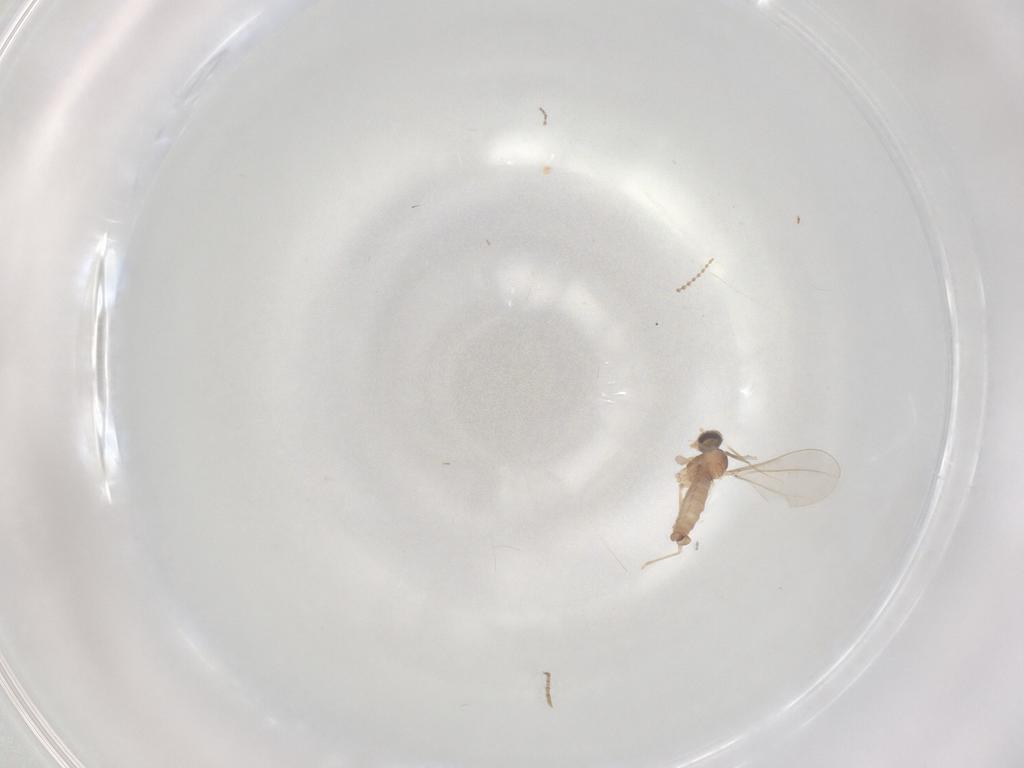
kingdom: Animalia
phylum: Arthropoda
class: Insecta
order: Diptera
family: Cecidomyiidae
